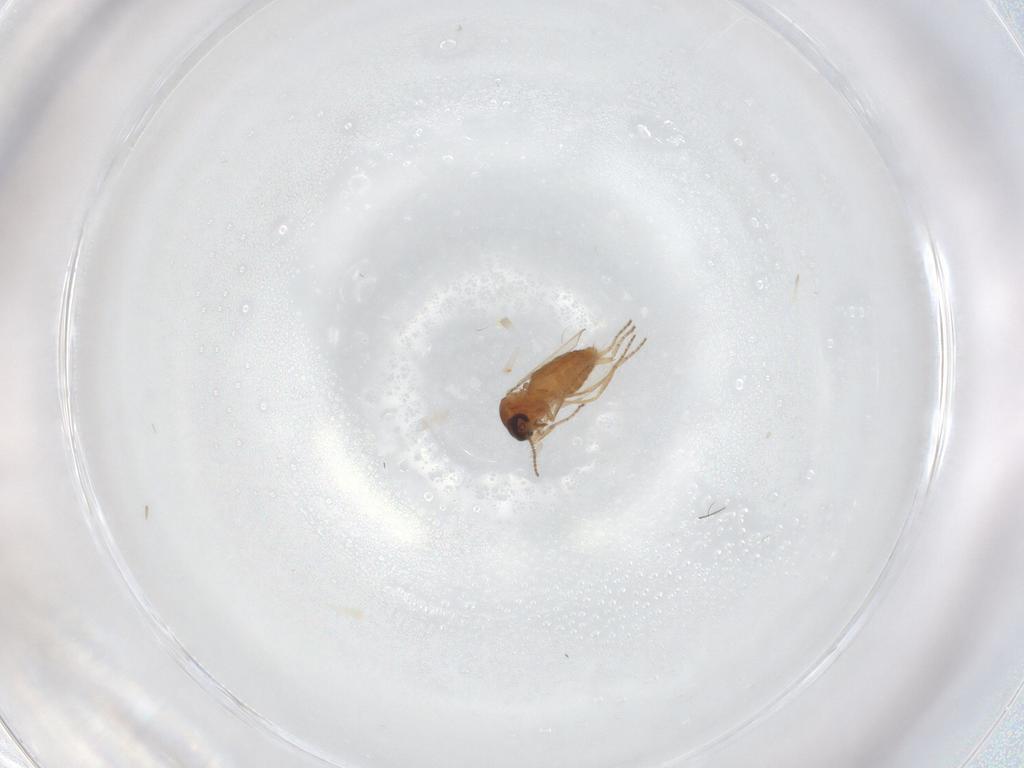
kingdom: Animalia
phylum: Arthropoda
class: Insecta
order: Diptera
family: Ceratopogonidae
